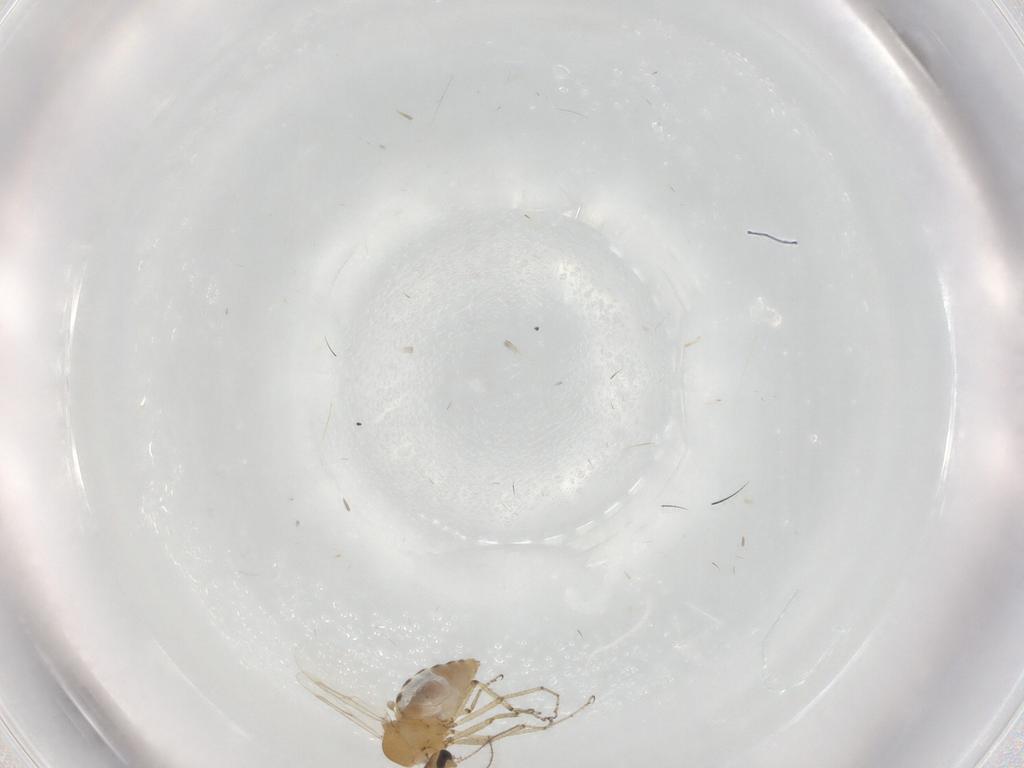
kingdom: Animalia
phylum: Arthropoda
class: Insecta
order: Diptera
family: Ceratopogonidae
